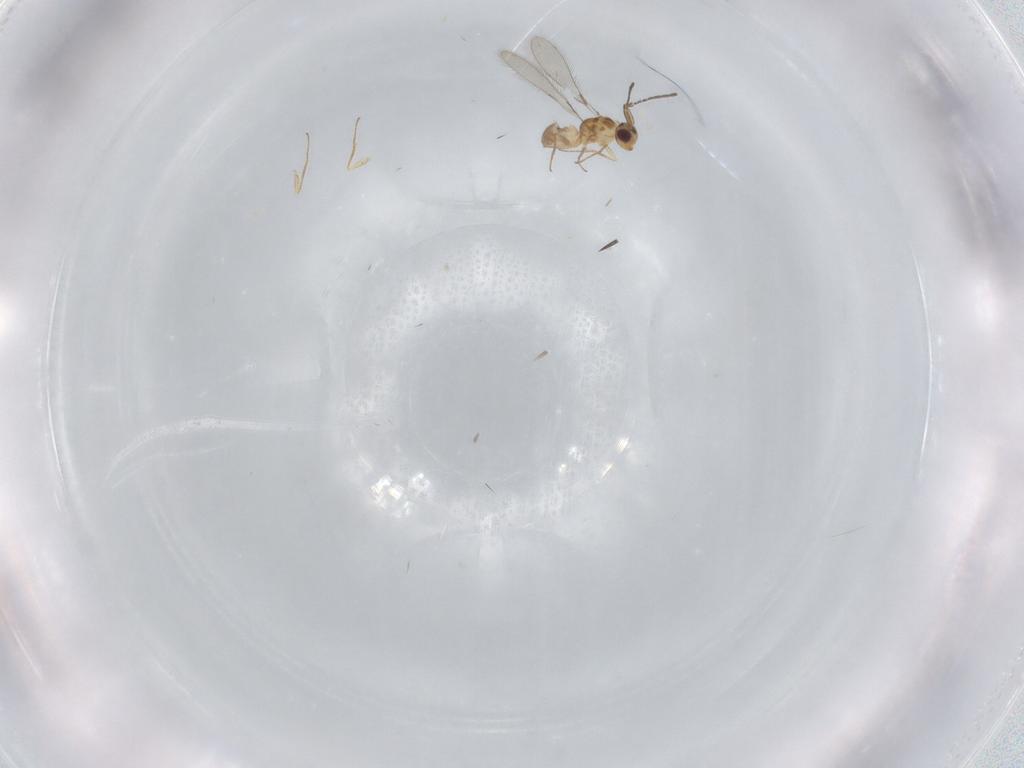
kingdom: Animalia
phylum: Arthropoda
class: Insecta
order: Hymenoptera
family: Mymaridae
